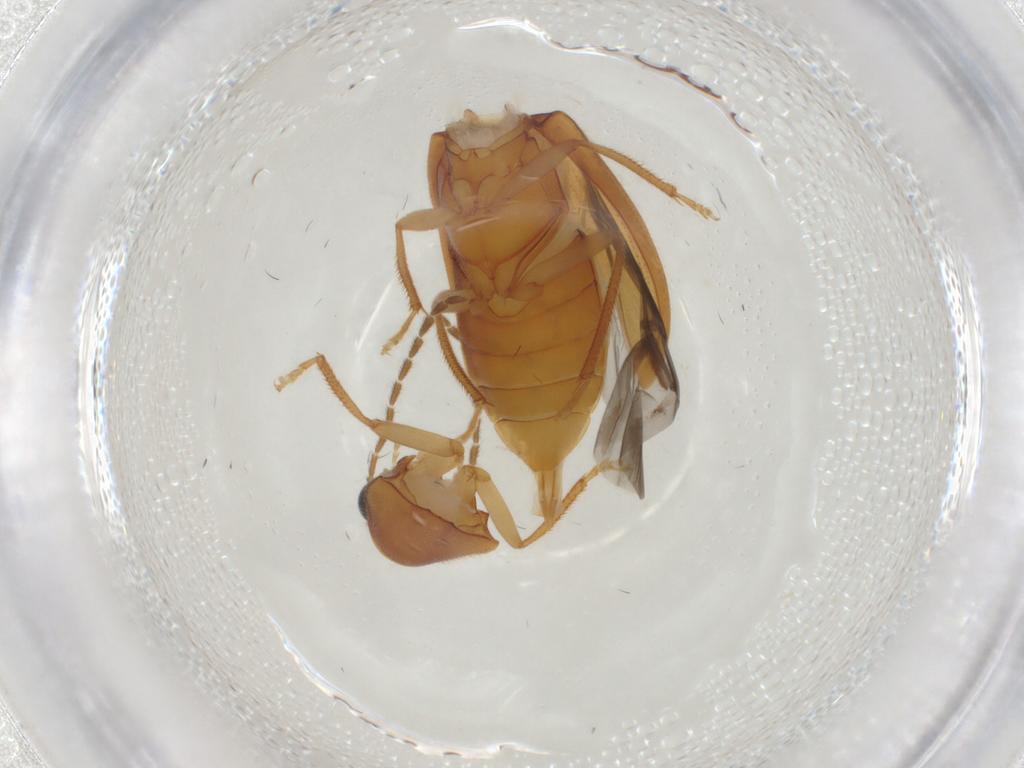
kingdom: Animalia
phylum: Arthropoda
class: Insecta
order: Coleoptera
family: Ptilodactylidae
